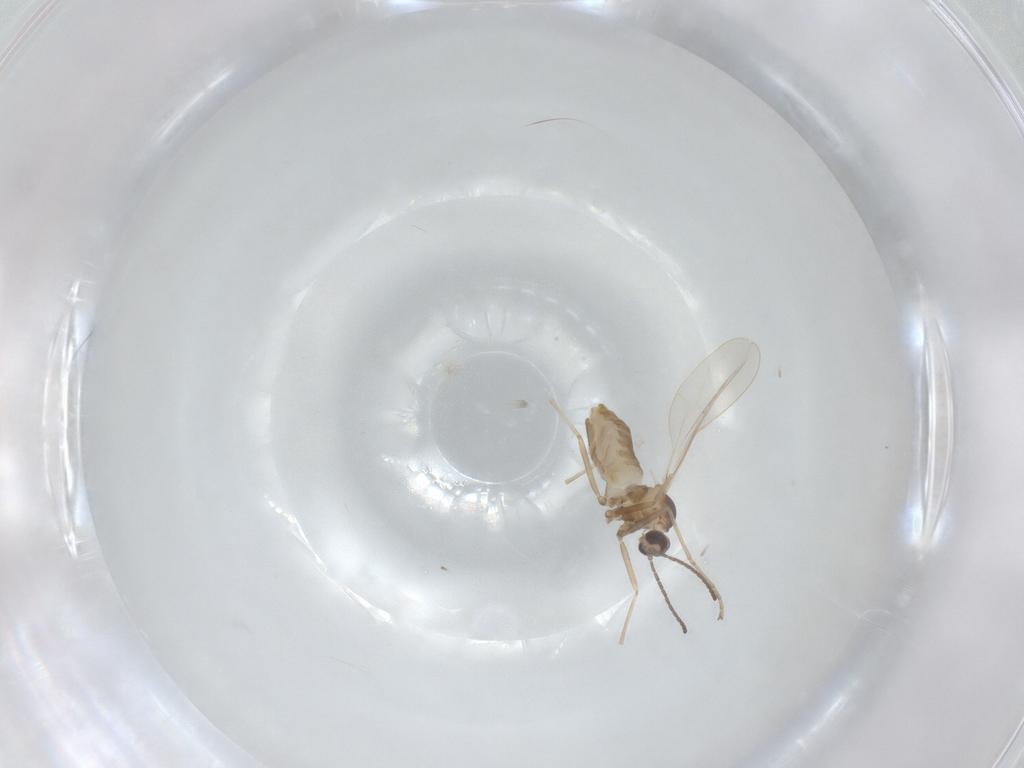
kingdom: Animalia
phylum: Arthropoda
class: Insecta
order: Diptera
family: Cecidomyiidae
